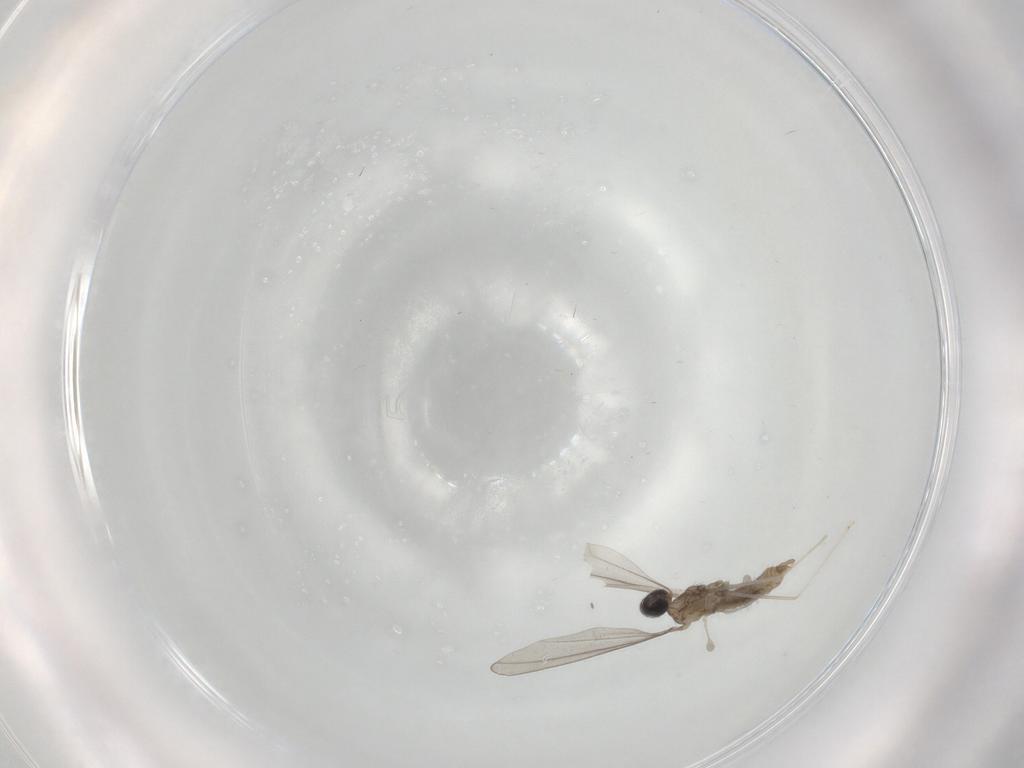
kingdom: Animalia
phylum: Arthropoda
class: Insecta
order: Diptera
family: Cecidomyiidae
